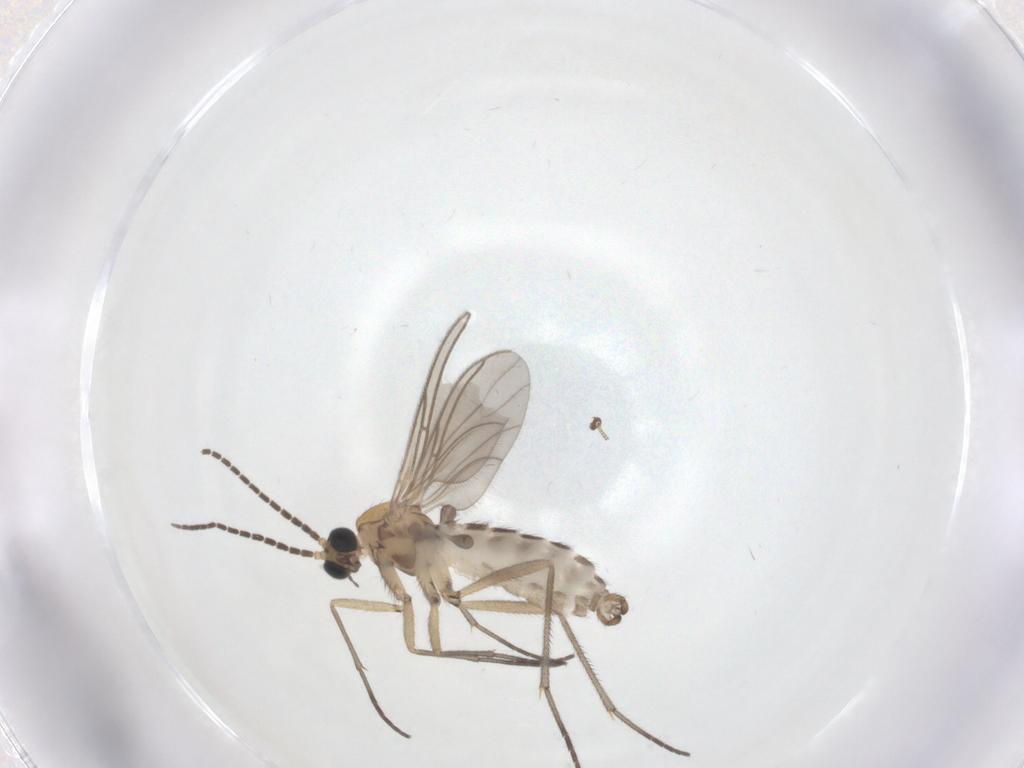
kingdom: Animalia
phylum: Arthropoda
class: Insecta
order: Diptera
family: Sciaridae
